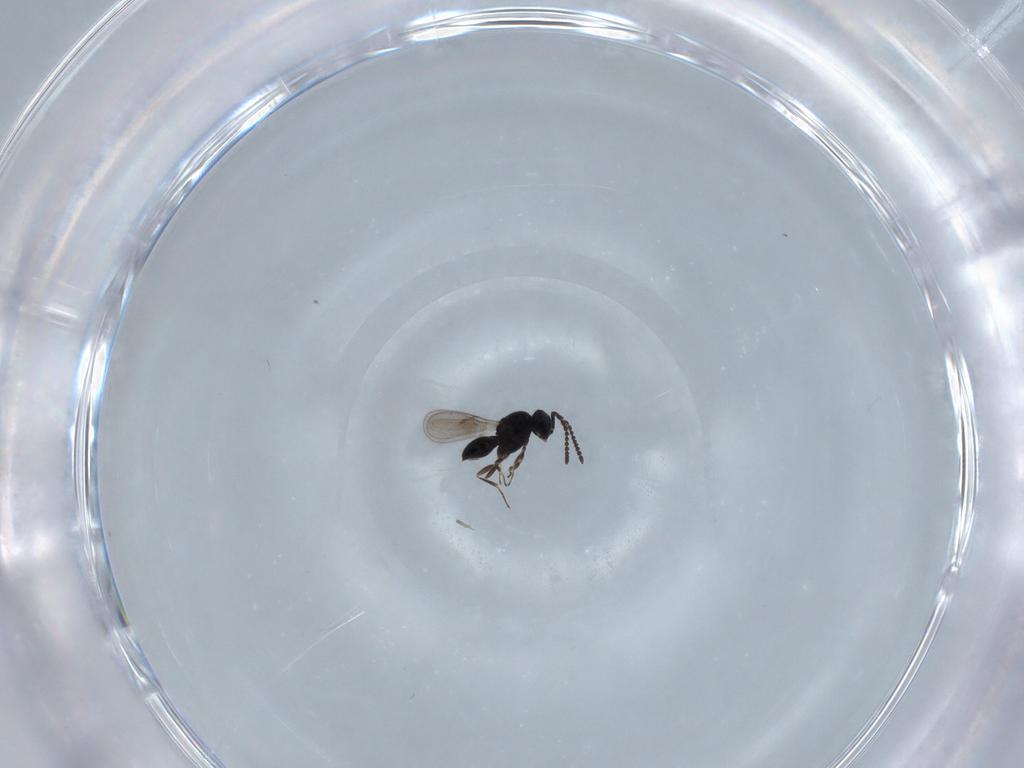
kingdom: Animalia
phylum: Arthropoda
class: Insecta
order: Hymenoptera
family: Scelionidae
